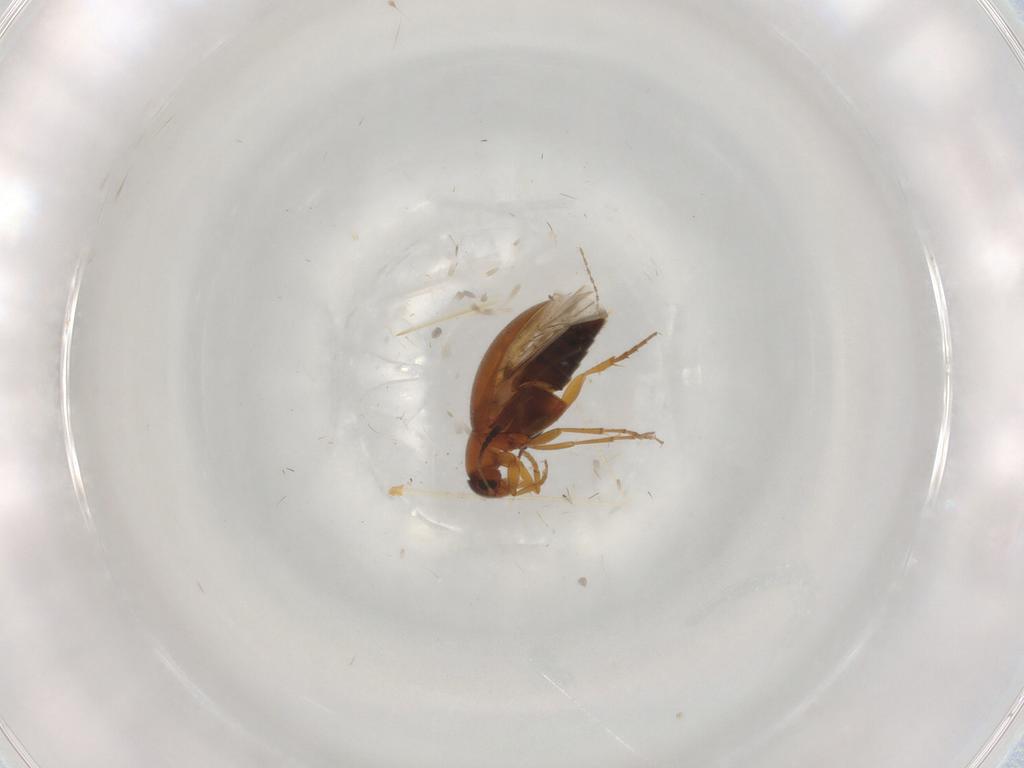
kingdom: Animalia
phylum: Arthropoda
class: Insecta
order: Coleoptera
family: Scraptiidae
